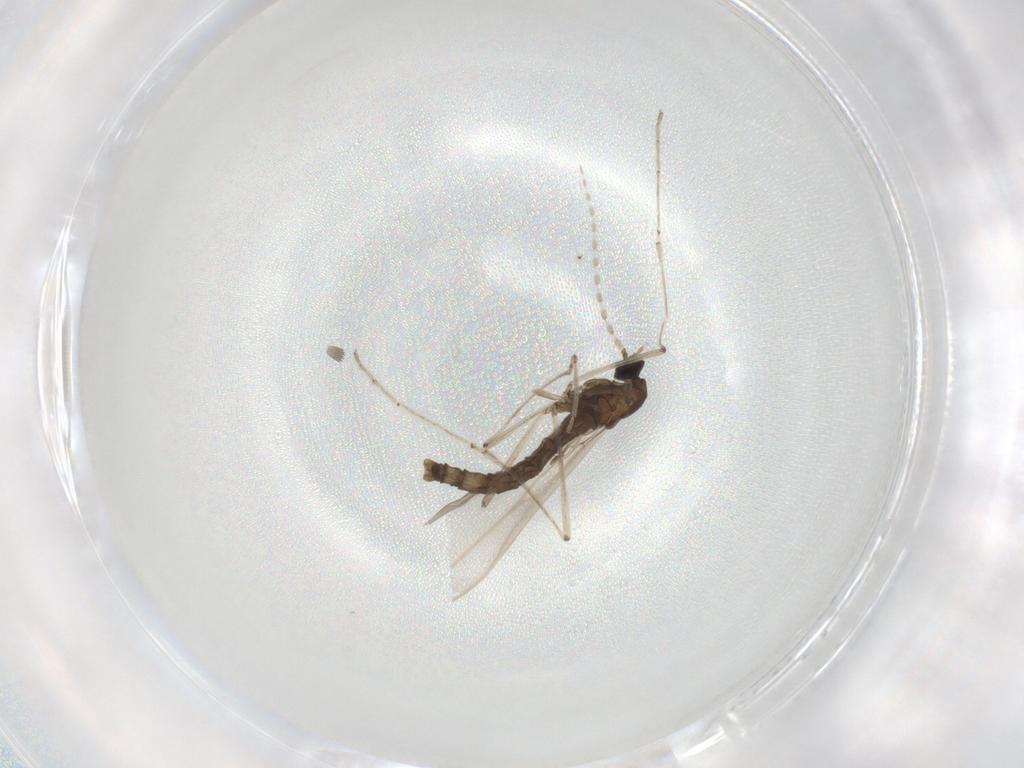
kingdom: Animalia
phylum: Arthropoda
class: Insecta
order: Diptera
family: Cecidomyiidae
